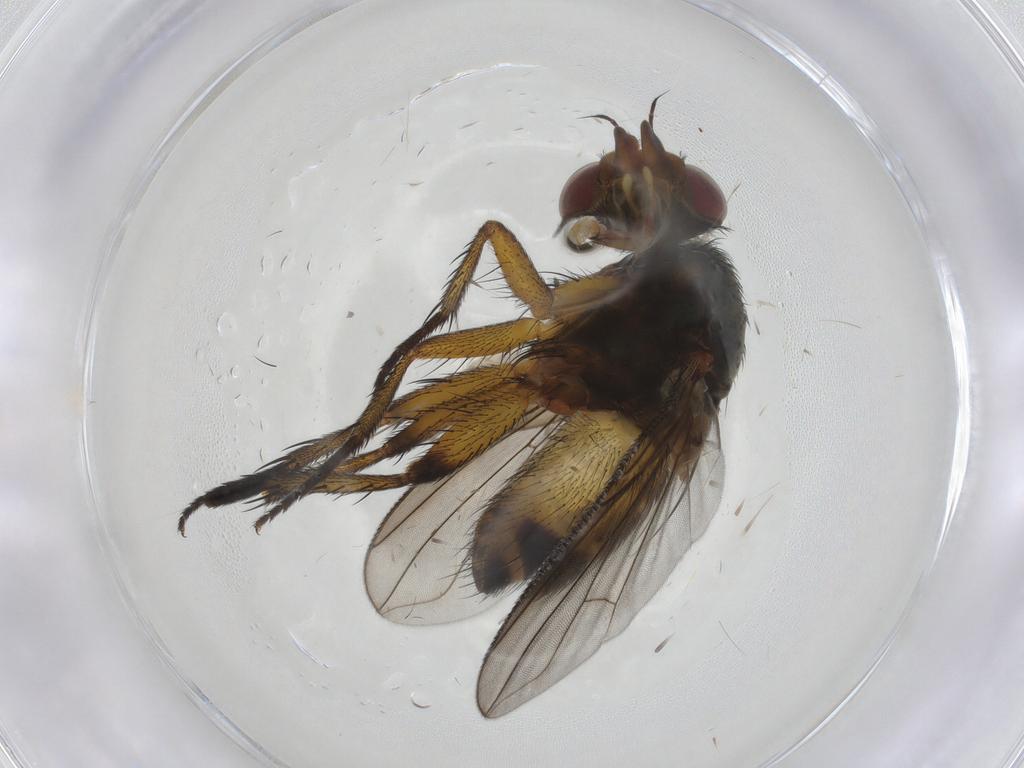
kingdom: Animalia
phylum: Arthropoda
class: Insecta
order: Diptera
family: Tachinidae
